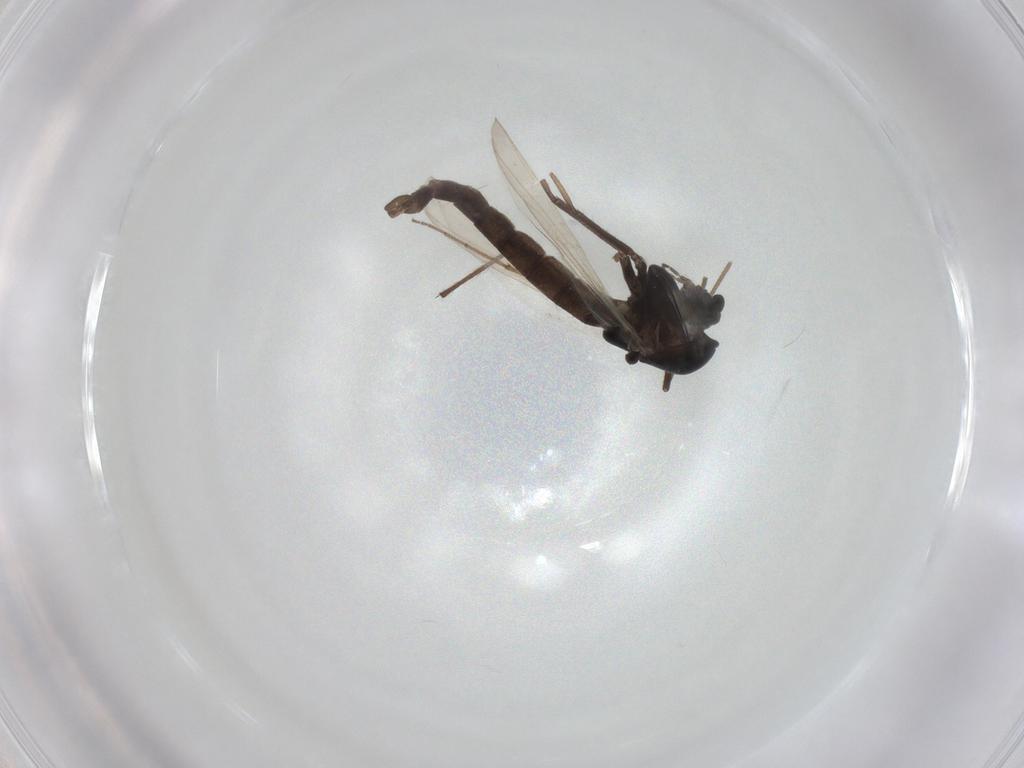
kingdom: Animalia
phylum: Arthropoda
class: Insecta
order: Diptera
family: Chironomidae
